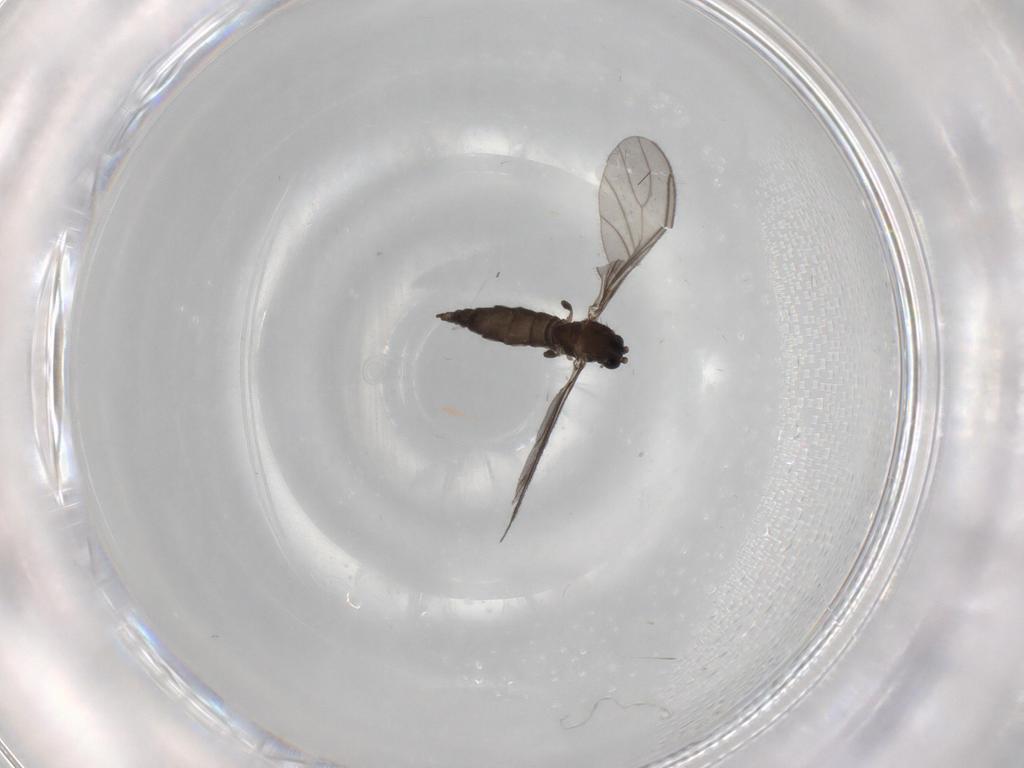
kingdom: Animalia
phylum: Arthropoda
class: Insecta
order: Diptera
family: Sciaridae
